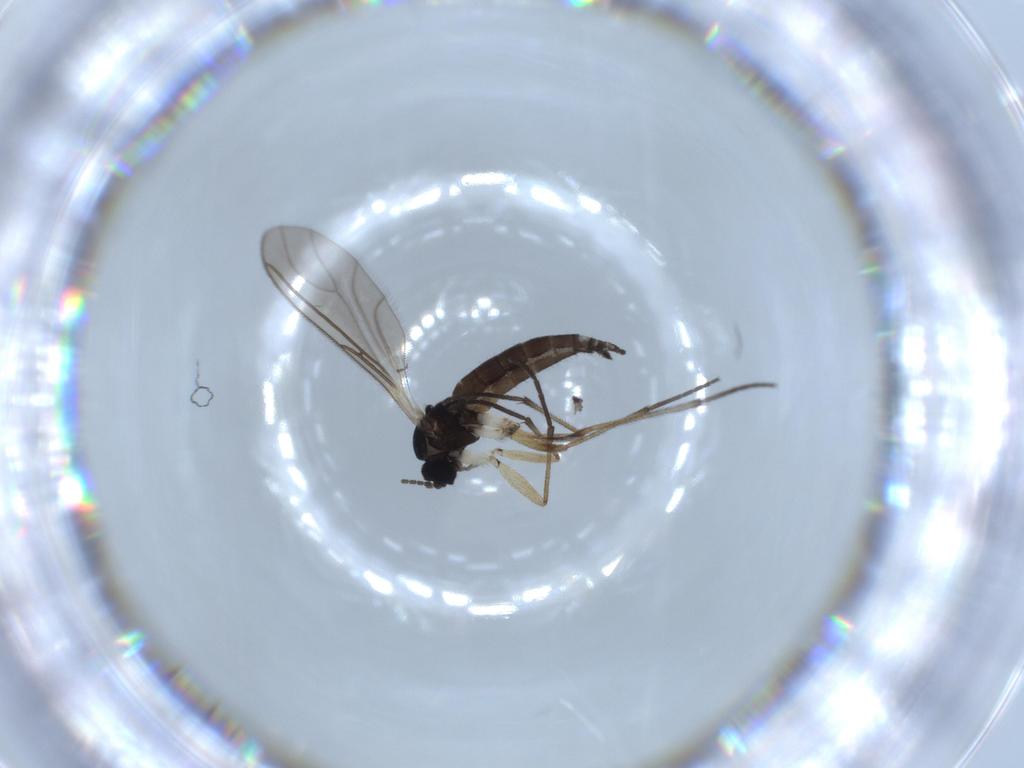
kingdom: Animalia
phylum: Arthropoda
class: Insecta
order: Diptera
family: Sciaridae
